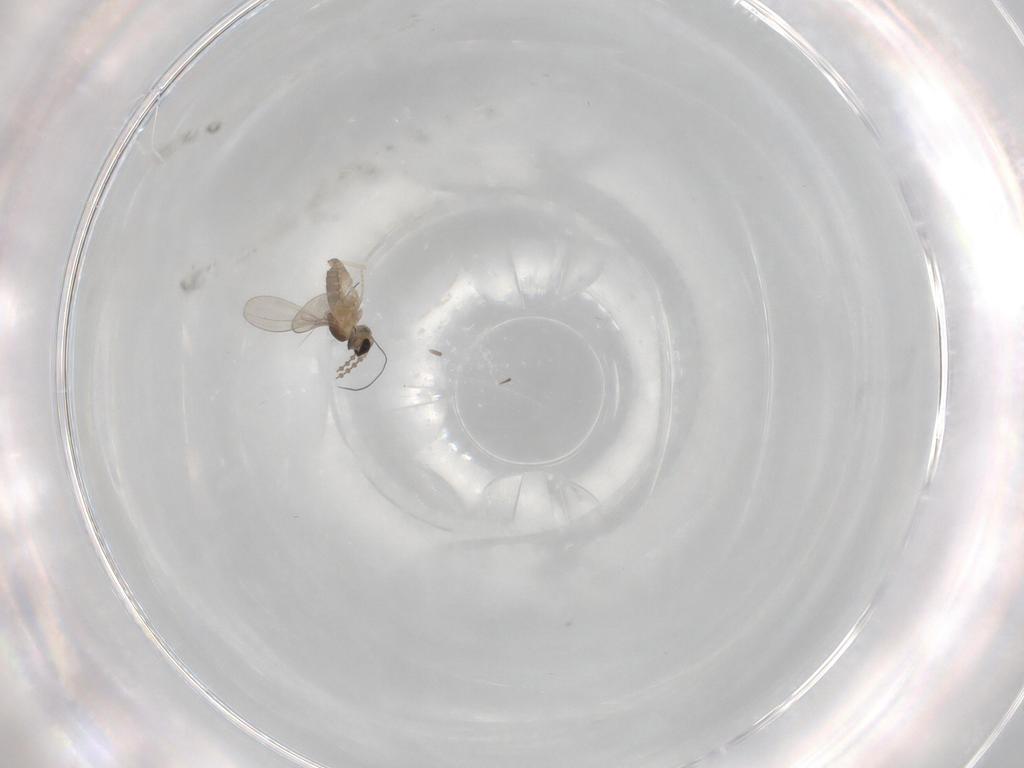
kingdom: Animalia
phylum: Arthropoda
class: Insecta
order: Diptera
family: Cecidomyiidae
